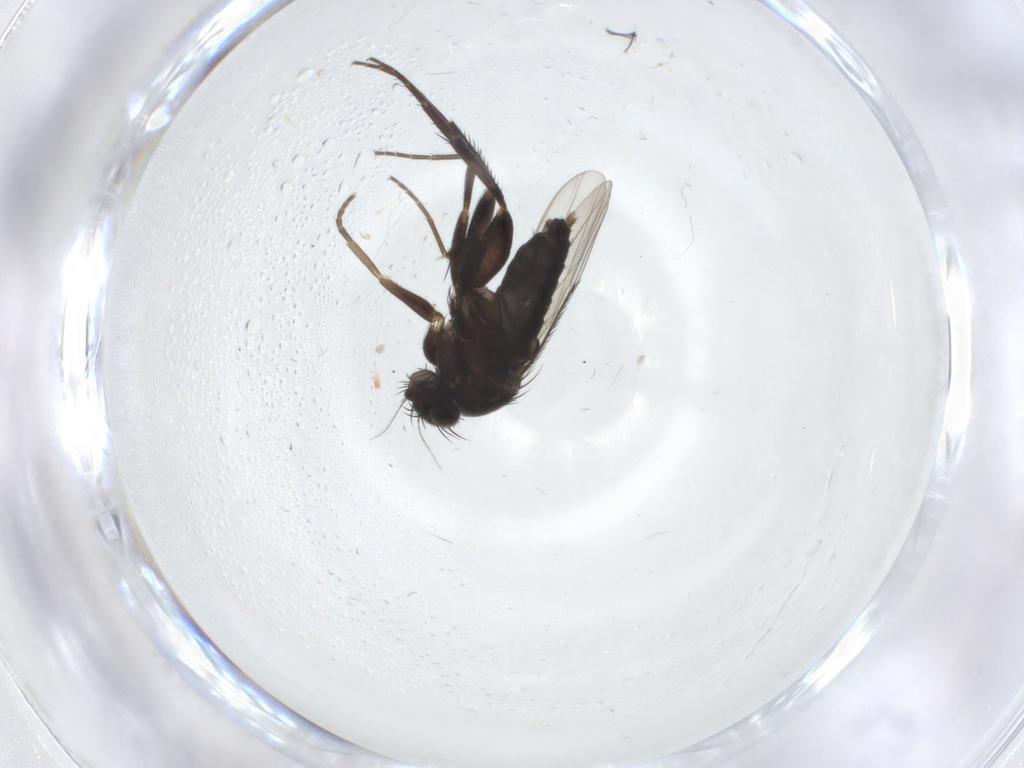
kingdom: Animalia
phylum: Arthropoda
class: Insecta
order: Diptera
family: Phoridae
